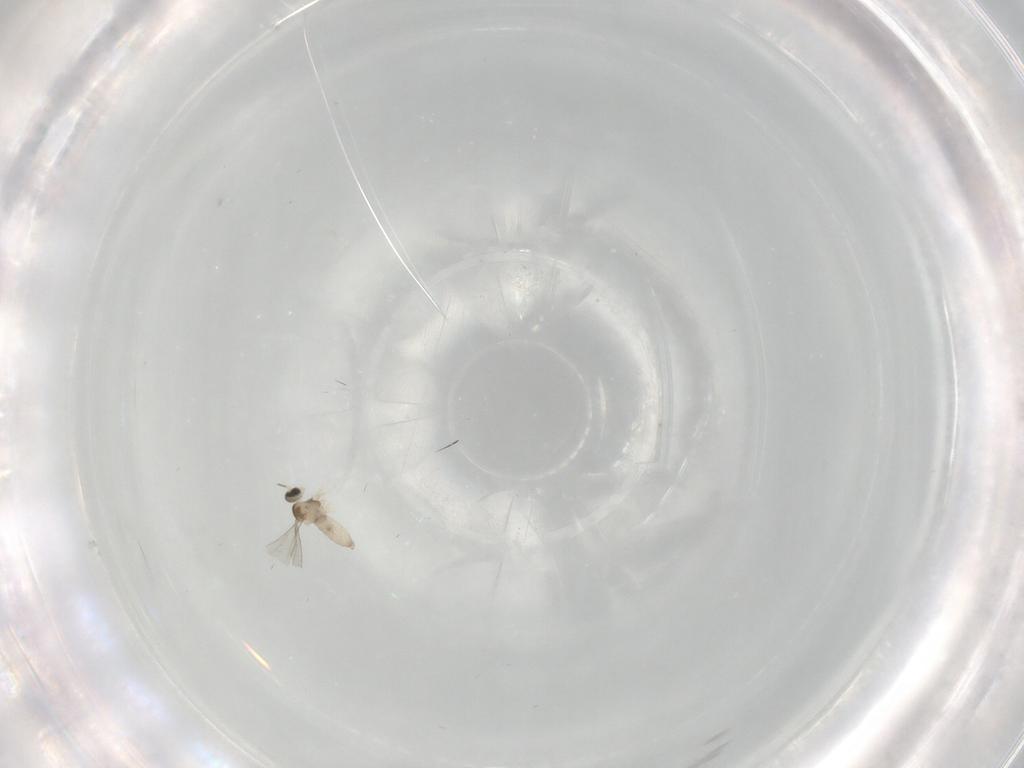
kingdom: Animalia
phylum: Arthropoda
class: Insecta
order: Diptera
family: Cecidomyiidae
